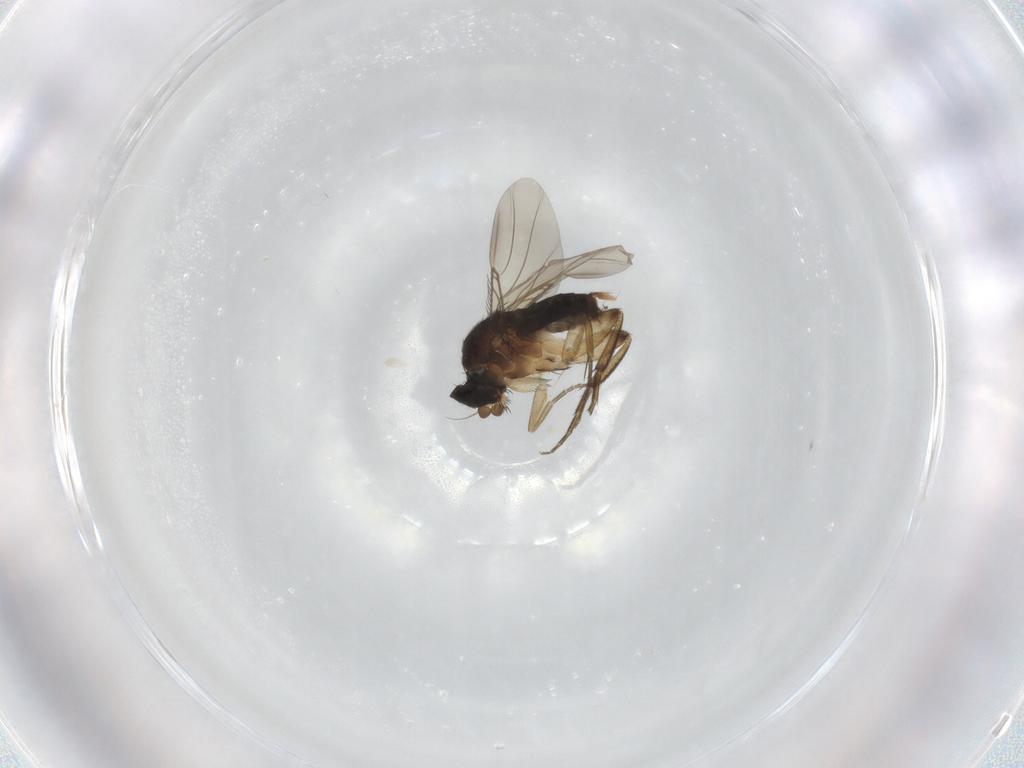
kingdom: Animalia
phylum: Arthropoda
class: Insecta
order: Diptera
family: Phoridae
